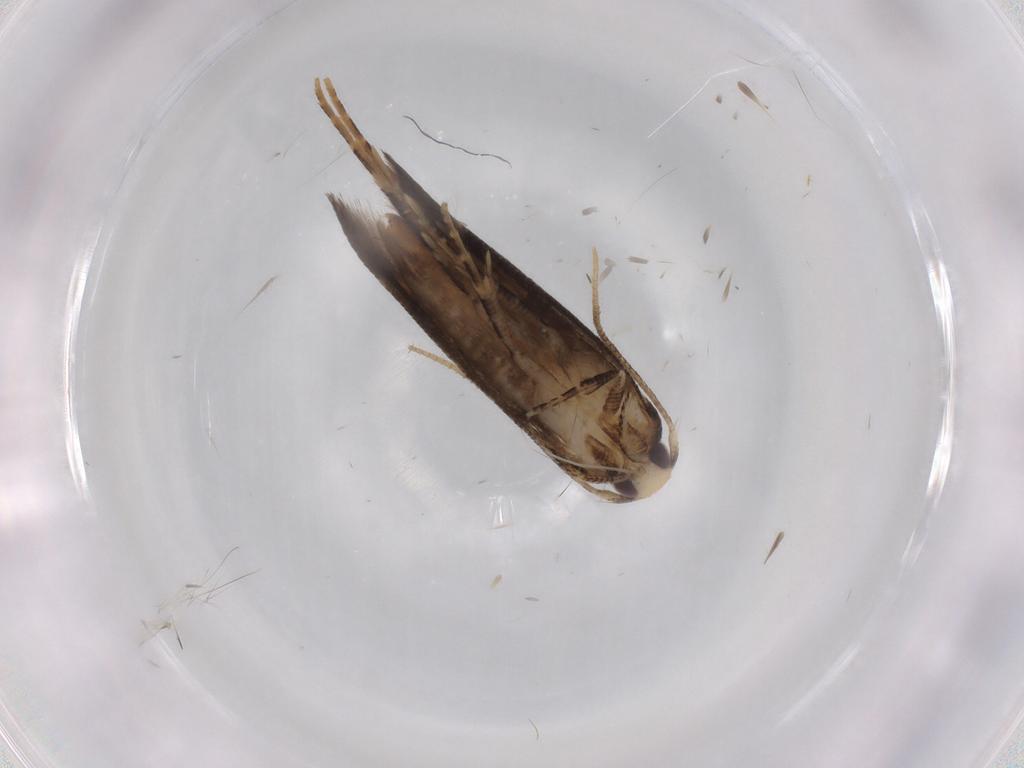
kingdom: Animalia
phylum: Arthropoda
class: Insecta
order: Lepidoptera
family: Cosmopterigidae
